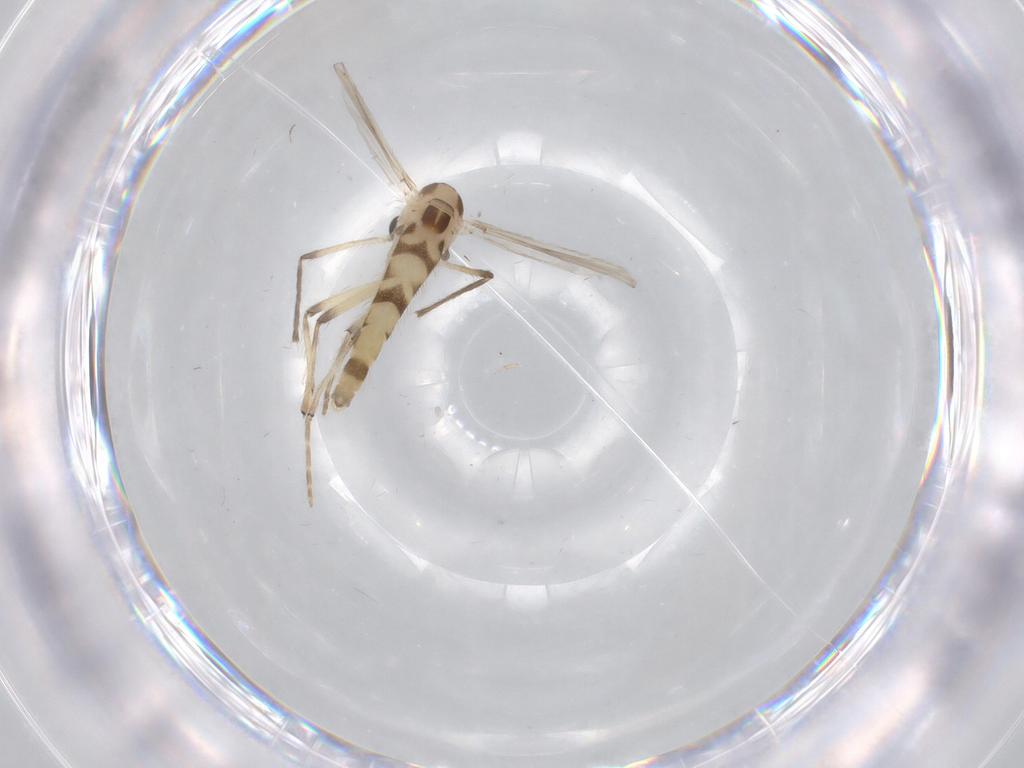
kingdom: Animalia
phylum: Arthropoda
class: Insecta
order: Diptera
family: Chironomidae
